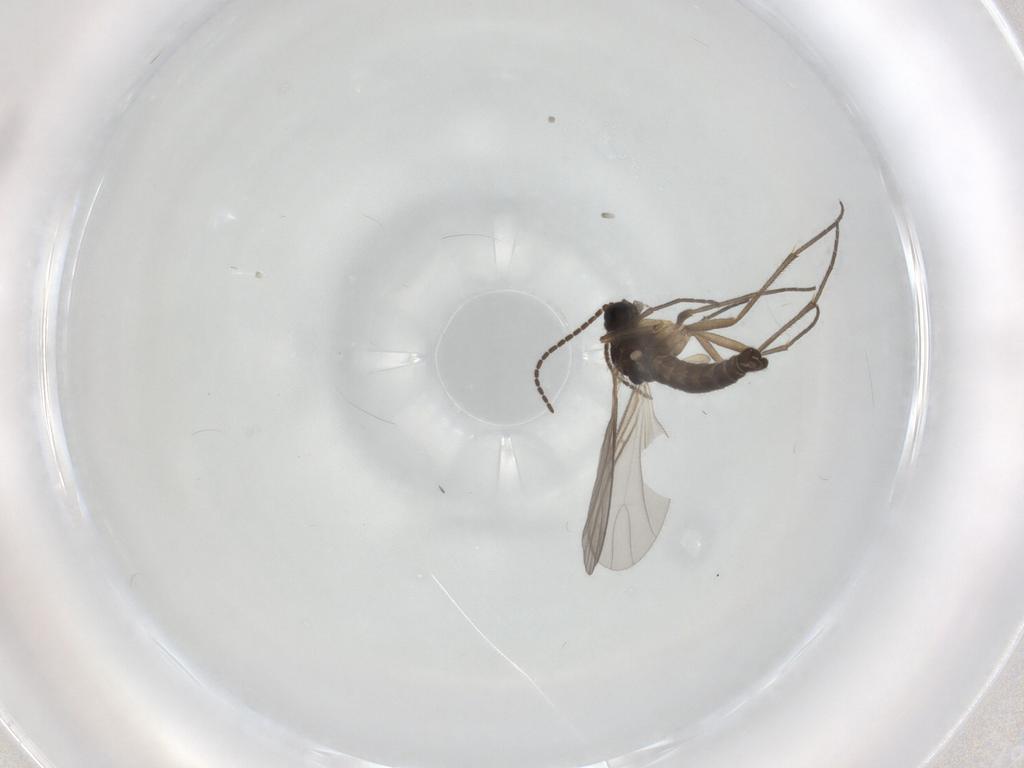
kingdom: Animalia
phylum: Arthropoda
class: Insecta
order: Diptera
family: Sciaridae
